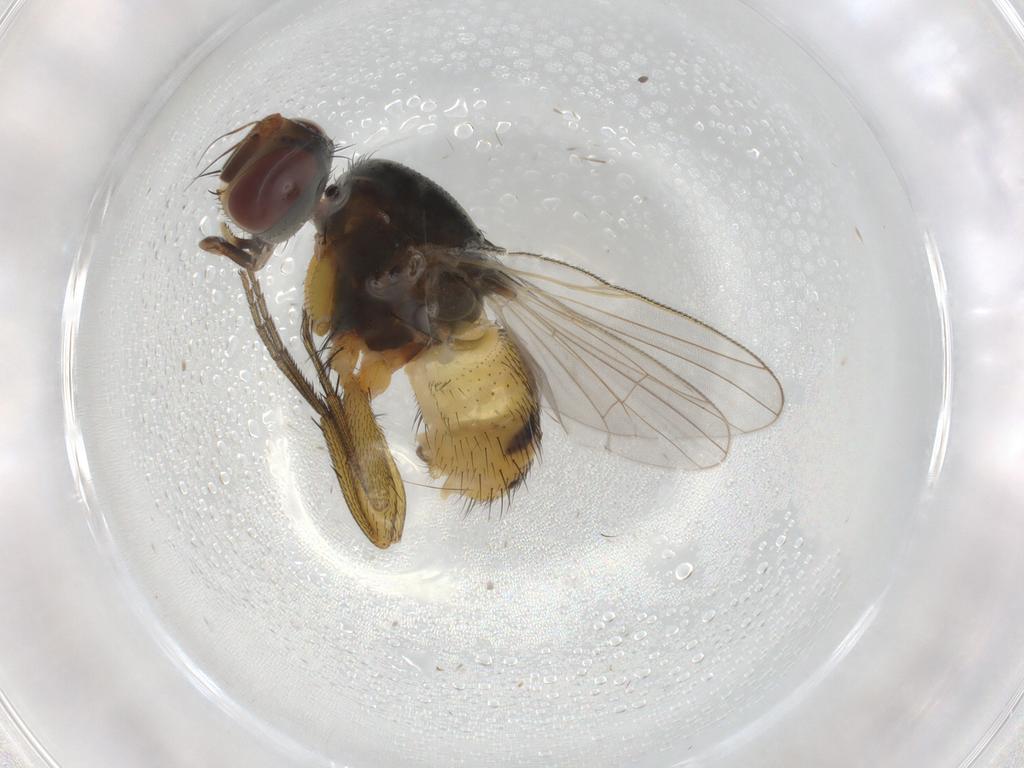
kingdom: Animalia
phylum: Arthropoda
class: Insecta
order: Diptera
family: Muscidae
